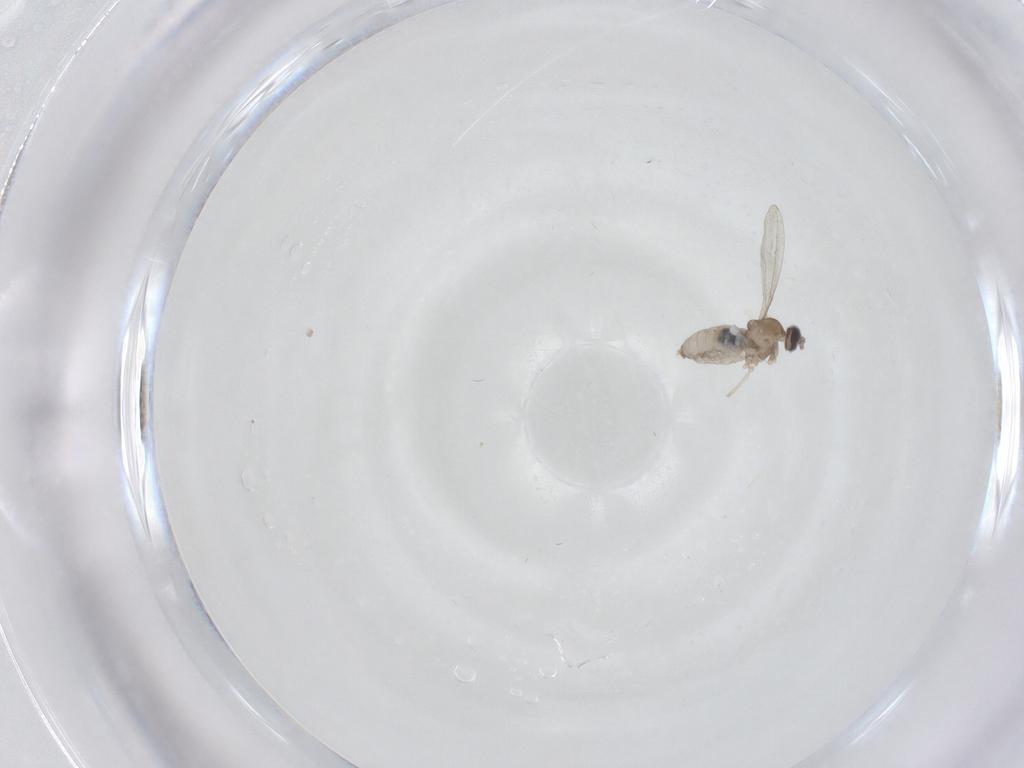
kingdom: Animalia
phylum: Arthropoda
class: Insecta
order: Diptera
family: Cecidomyiidae
